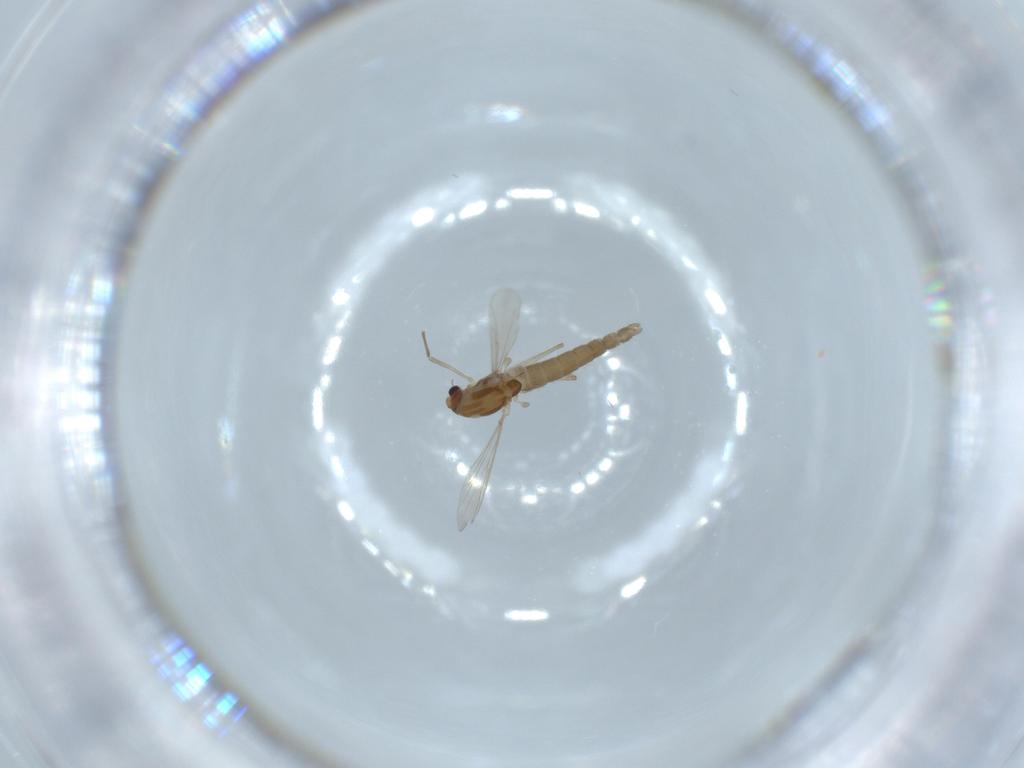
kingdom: Animalia
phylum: Arthropoda
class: Insecta
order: Diptera
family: Chironomidae
